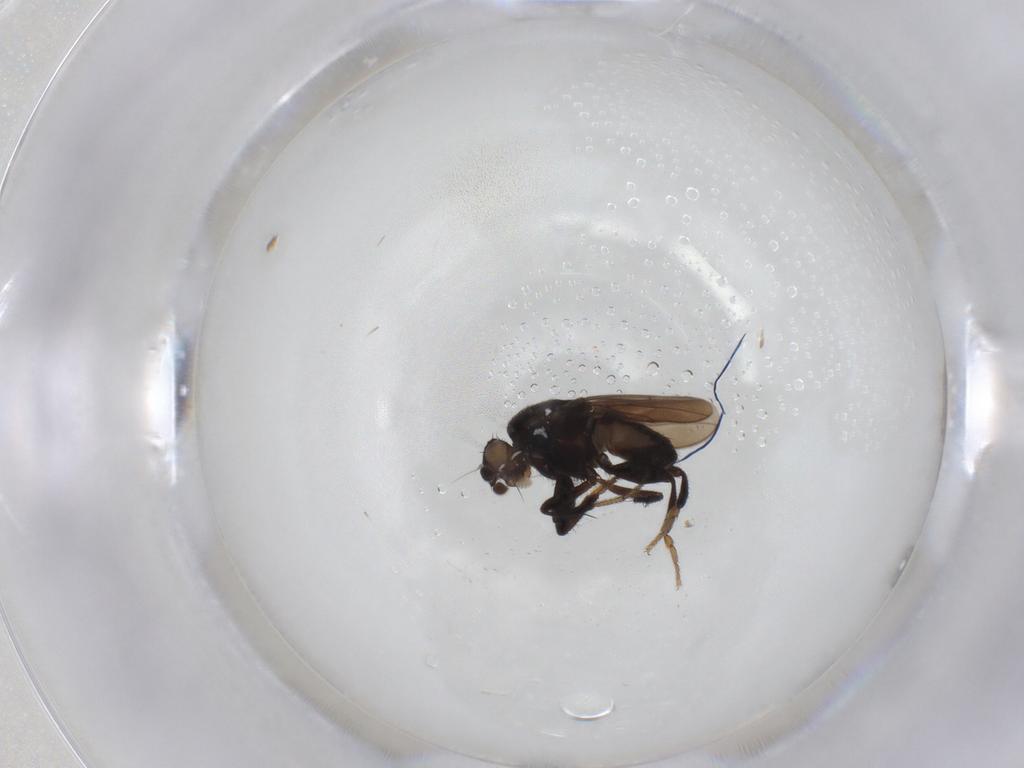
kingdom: Animalia
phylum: Arthropoda
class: Insecta
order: Diptera
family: Sphaeroceridae
